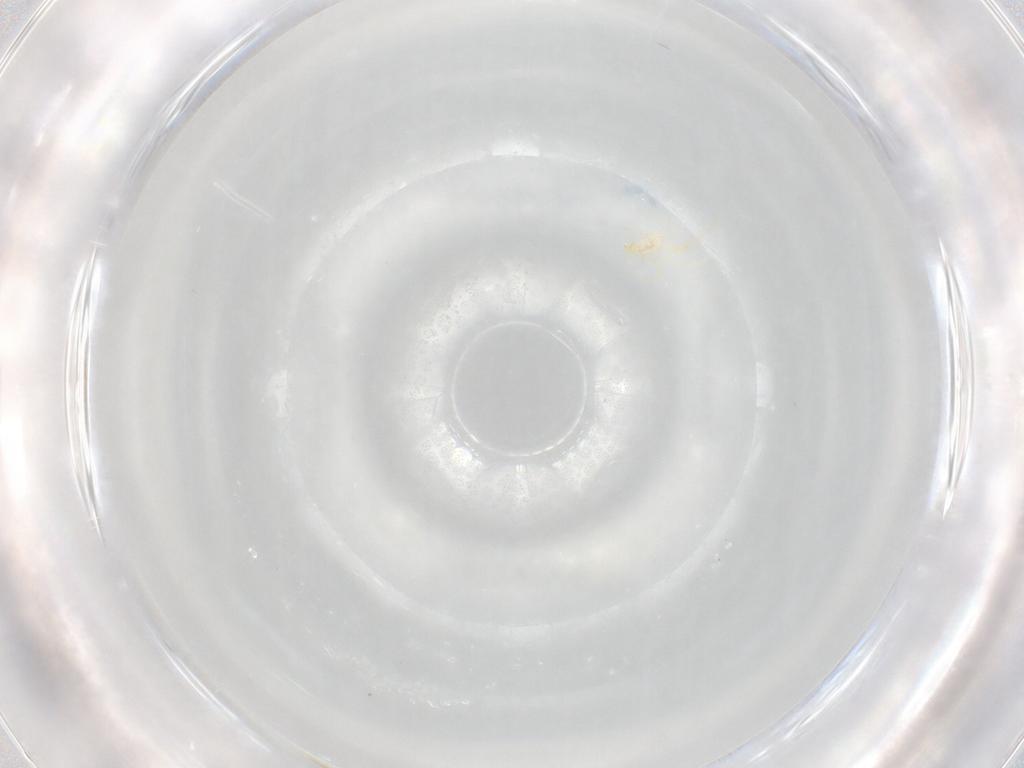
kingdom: Animalia
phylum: Arthropoda
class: Arachnida
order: Trombidiformes
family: Erythraeidae
